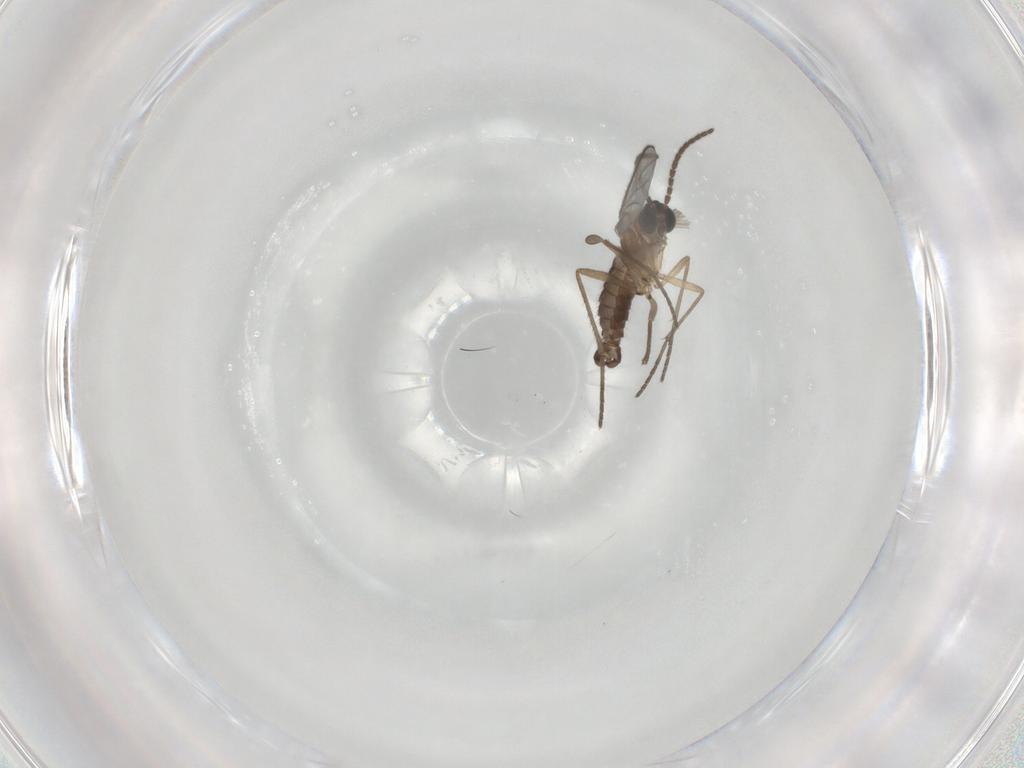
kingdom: Animalia
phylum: Arthropoda
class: Insecta
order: Diptera
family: Sciaridae
